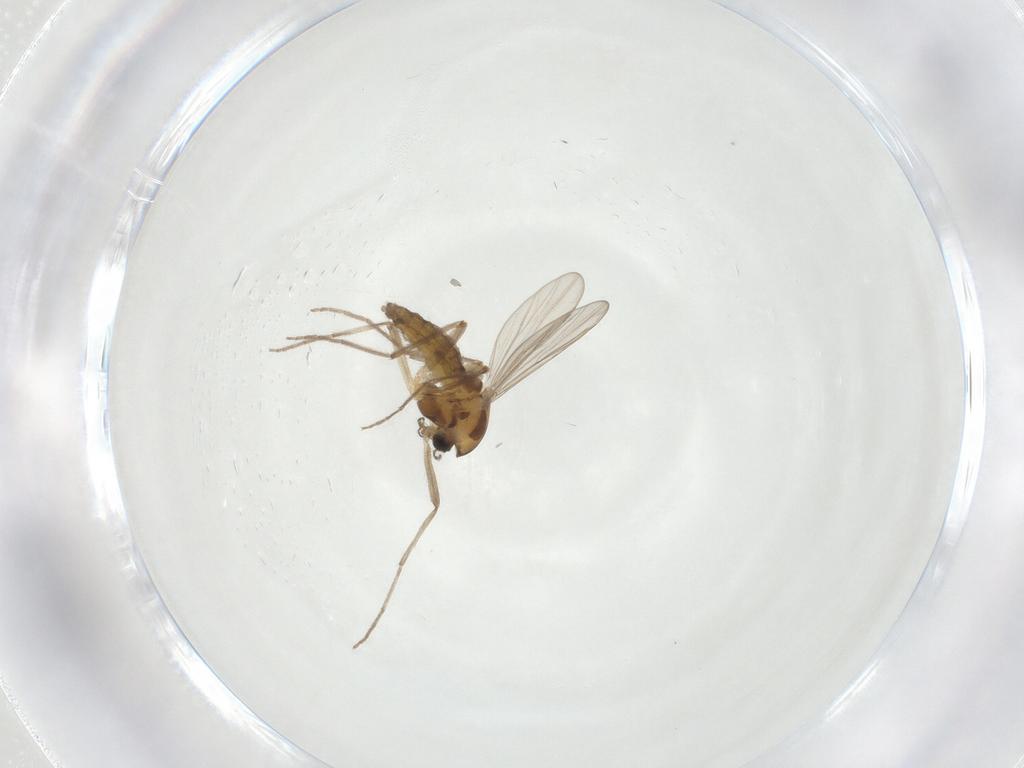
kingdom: Animalia
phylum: Arthropoda
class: Insecta
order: Diptera
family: Chironomidae
